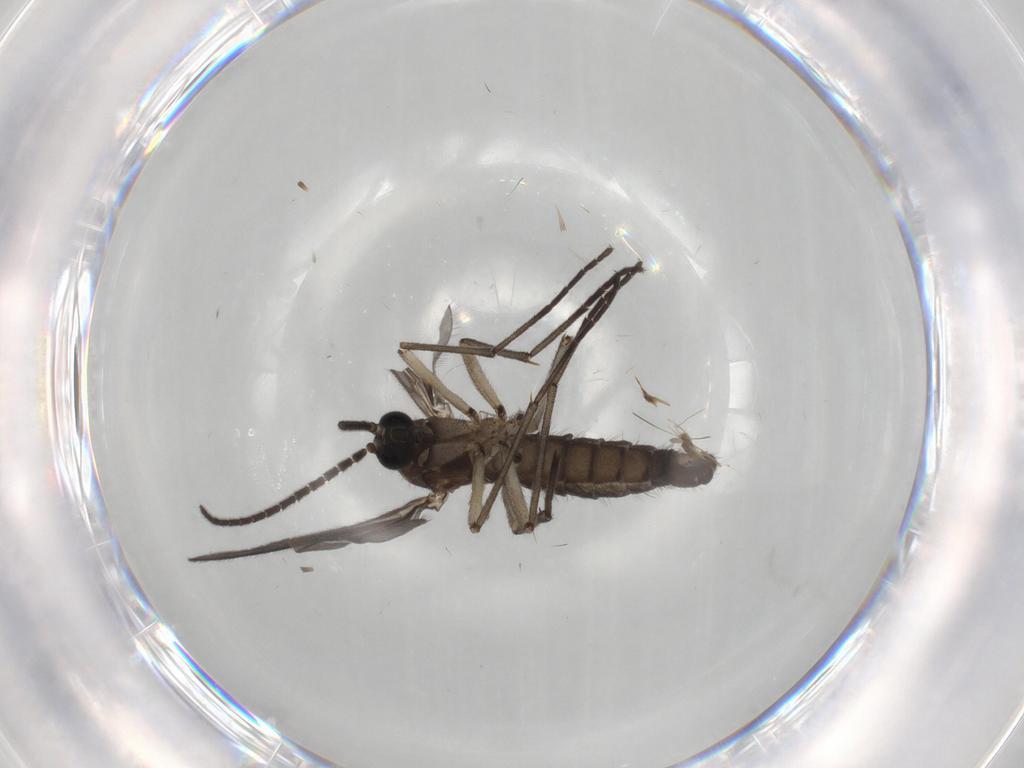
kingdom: Animalia
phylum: Arthropoda
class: Insecta
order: Diptera
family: Sciaridae
